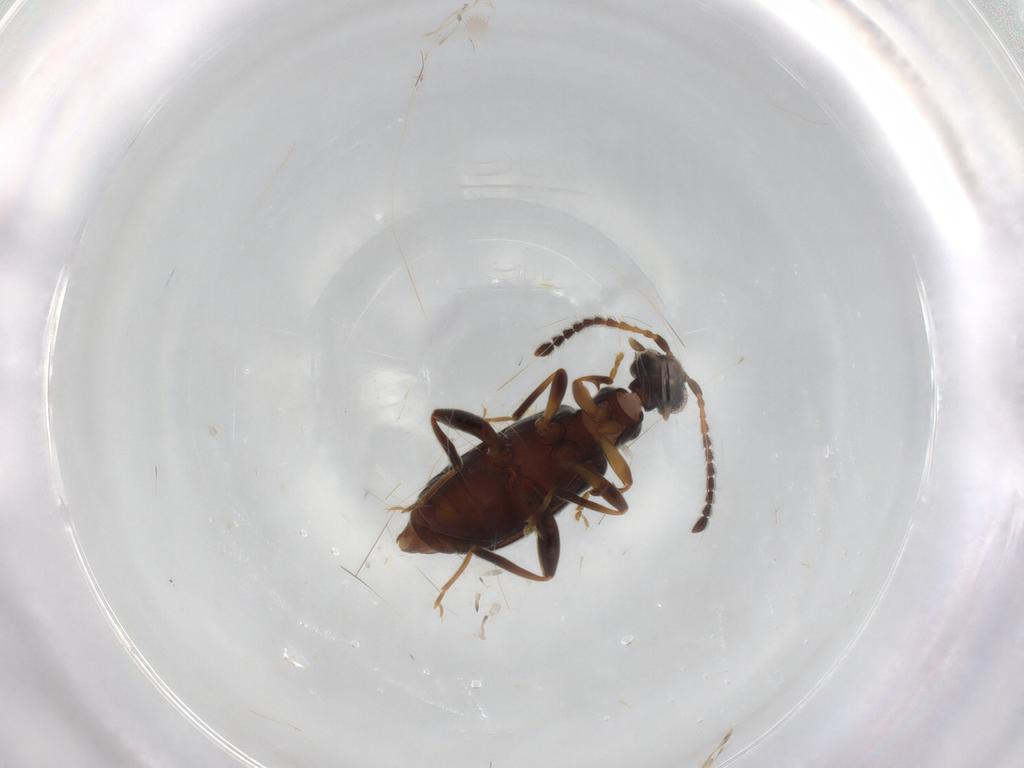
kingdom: Animalia
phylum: Arthropoda
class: Insecta
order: Coleoptera
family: Aderidae
